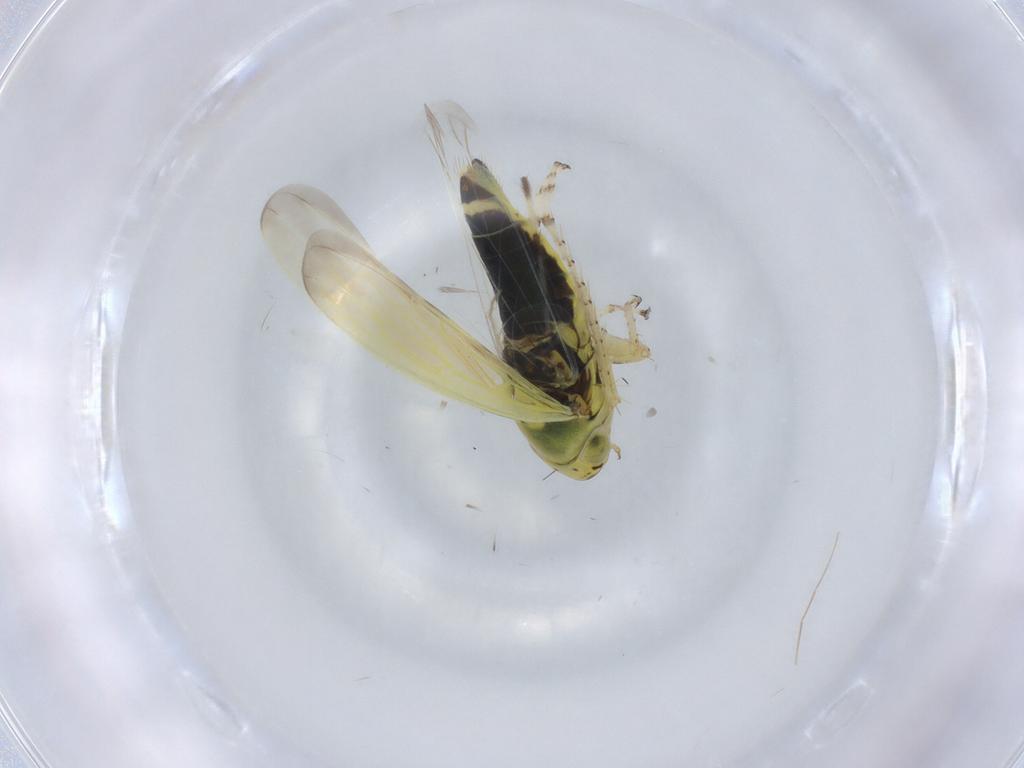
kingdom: Animalia
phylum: Arthropoda
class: Insecta
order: Hemiptera
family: Cicadellidae
